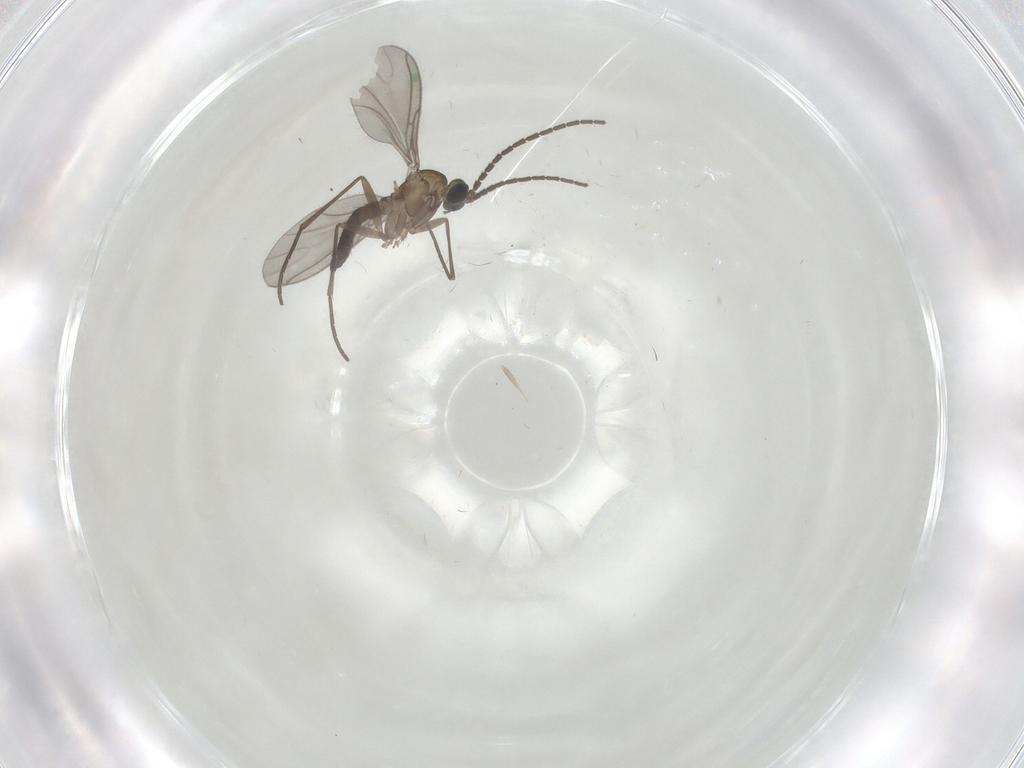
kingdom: Animalia
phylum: Arthropoda
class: Insecta
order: Diptera
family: Sciaridae
